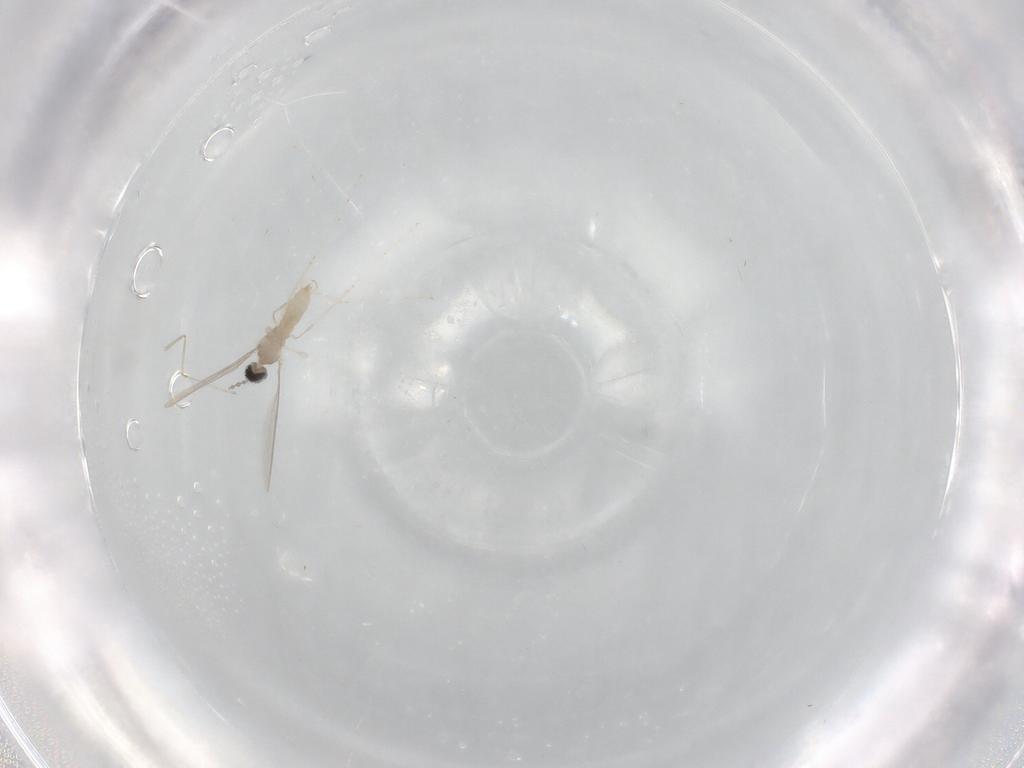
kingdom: Animalia
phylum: Arthropoda
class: Insecta
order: Diptera
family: Cecidomyiidae
